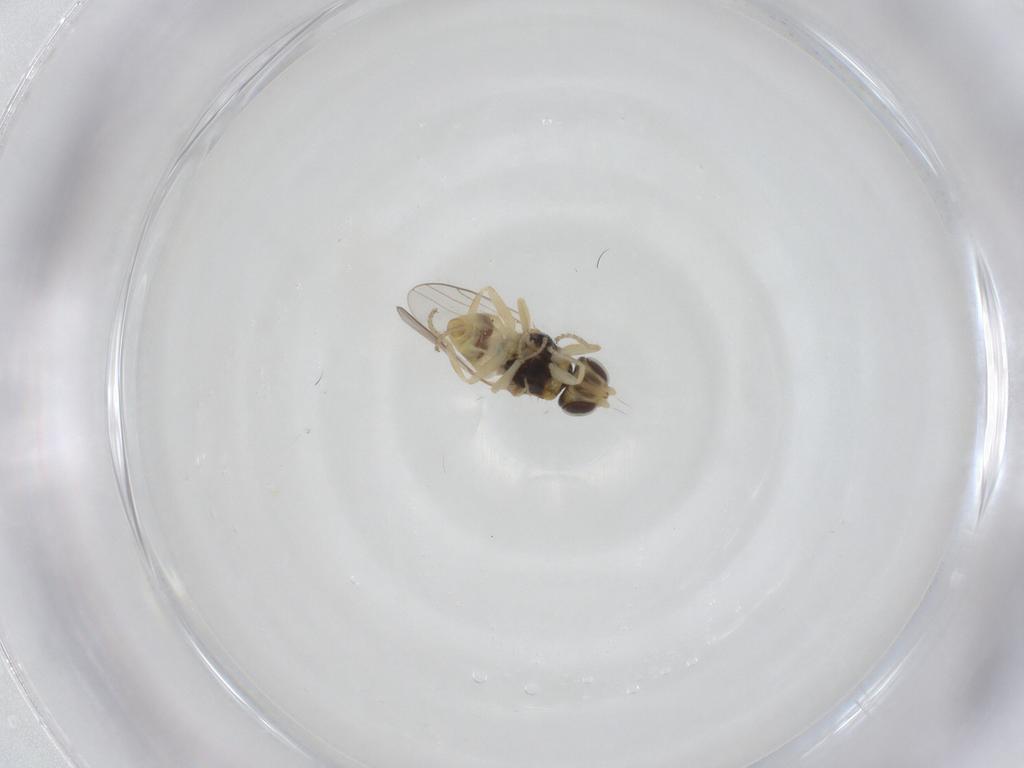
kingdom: Animalia
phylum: Arthropoda
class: Insecta
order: Diptera
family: Chloropidae
